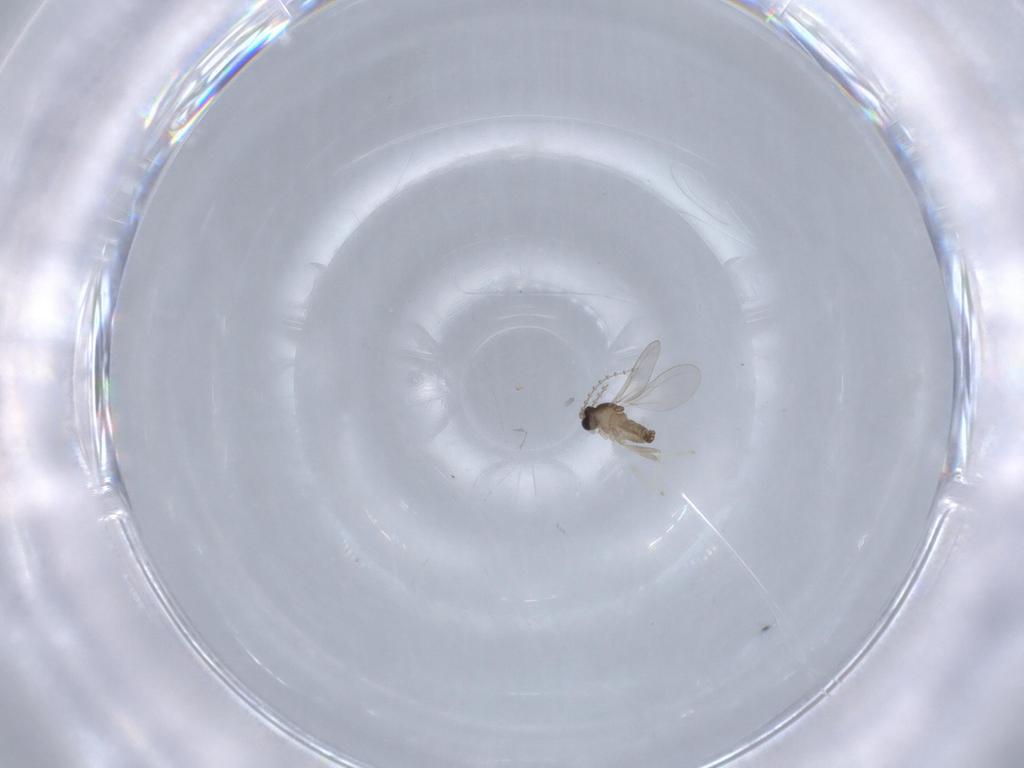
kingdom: Animalia
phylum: Arthropoda
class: Insecta
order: Diptera
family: Cecidomyiidae
